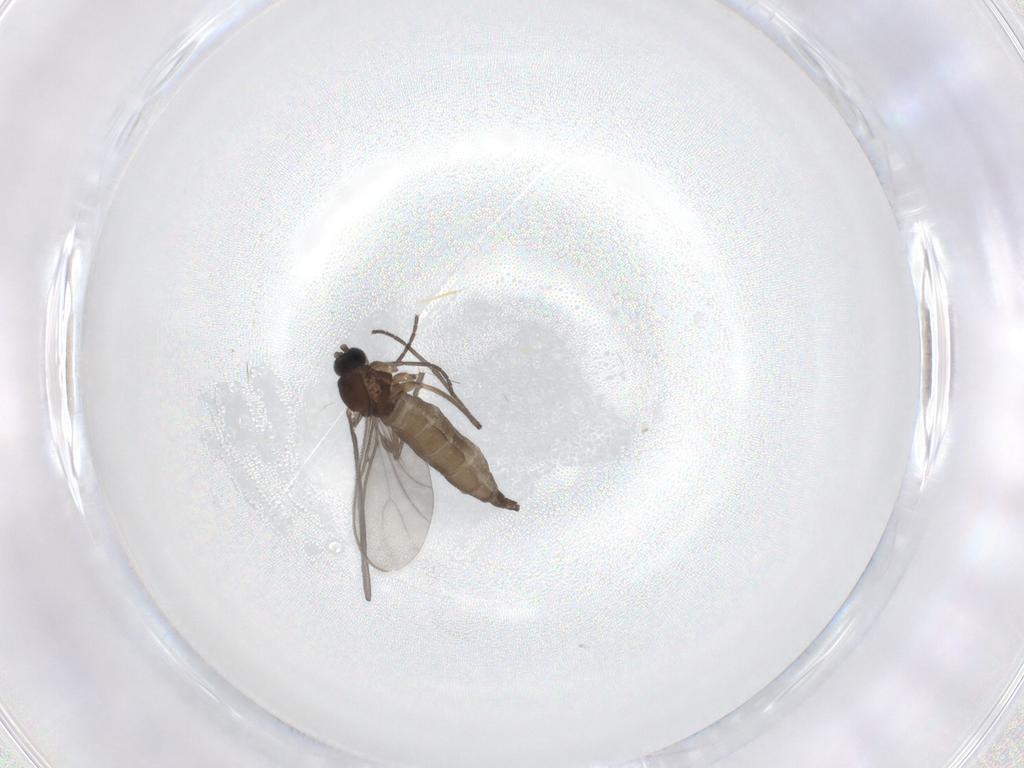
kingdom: Animalia
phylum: Arthropoda
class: Insecta
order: Diptera
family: Sciaridae
